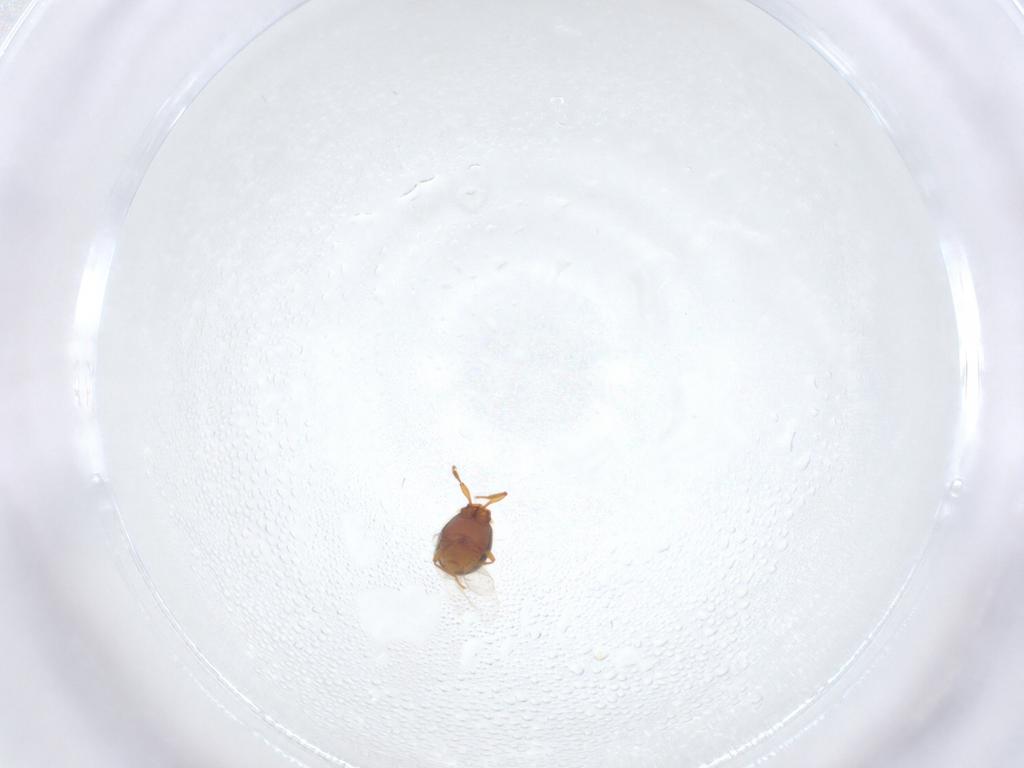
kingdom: Animalia
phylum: Arthropoda
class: Insecta
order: Coleoptera
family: Staphylinidae
